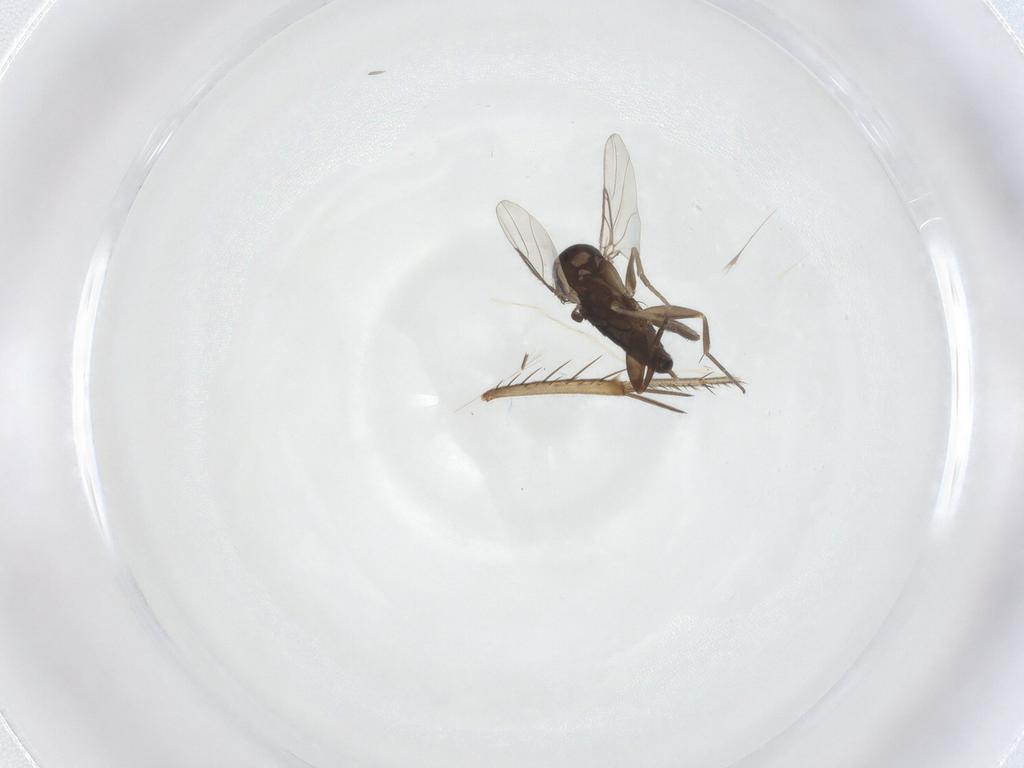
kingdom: Animalia
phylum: Arthropoda
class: Insecta
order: Diptera
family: Phoridae
